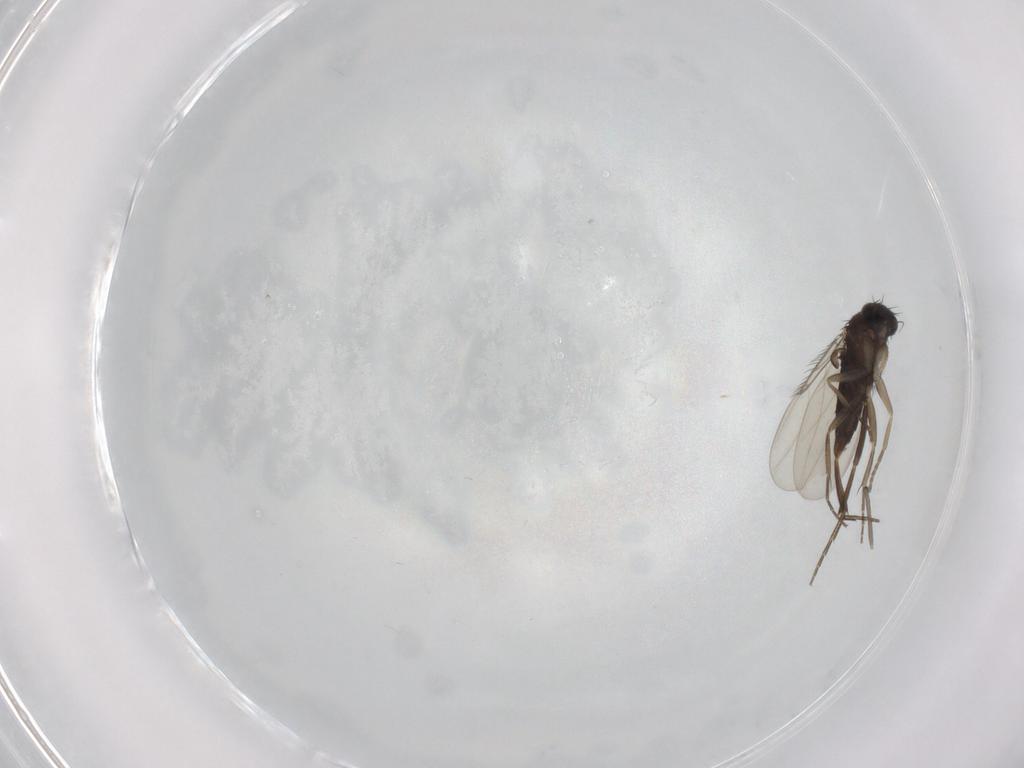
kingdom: Animalia
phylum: Arthropoda
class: Insecta
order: Diptera
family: Phoridae
